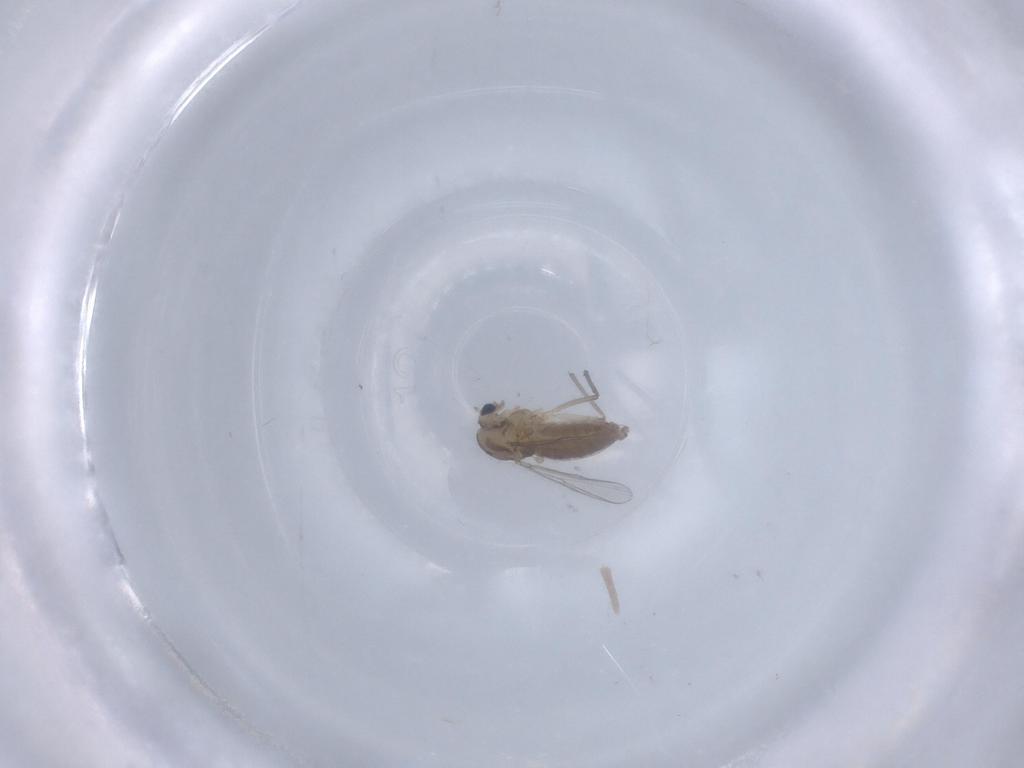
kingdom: Animalia
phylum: Arthropoda
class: Insecta
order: Diptera
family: Chironomidae
